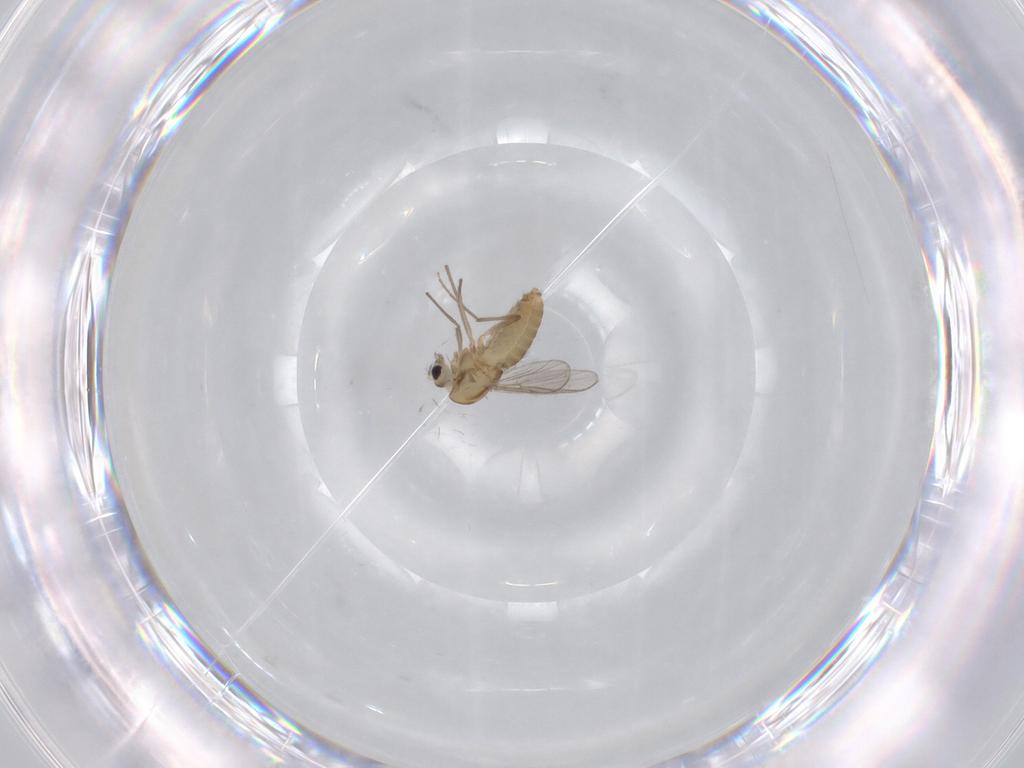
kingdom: Animalia
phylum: Arthropoda
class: Insecta
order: Diptera
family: Chironomidae
